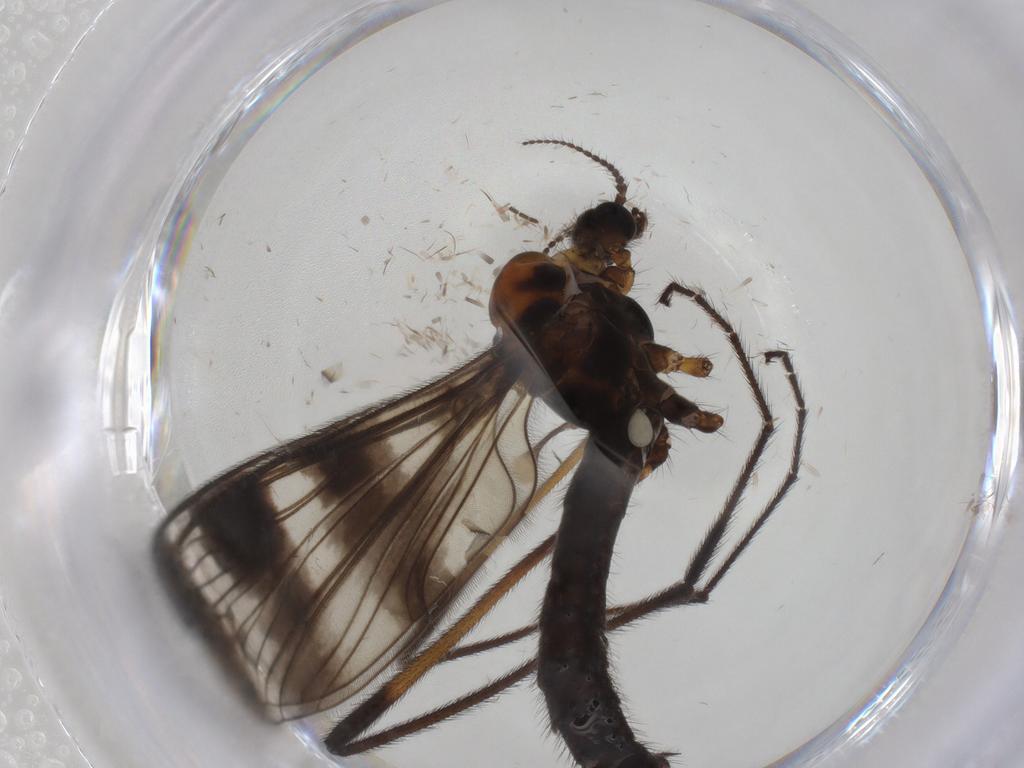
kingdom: Animalia
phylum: Arthropoda
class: Insecta
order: Diptera
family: Limoniidae
